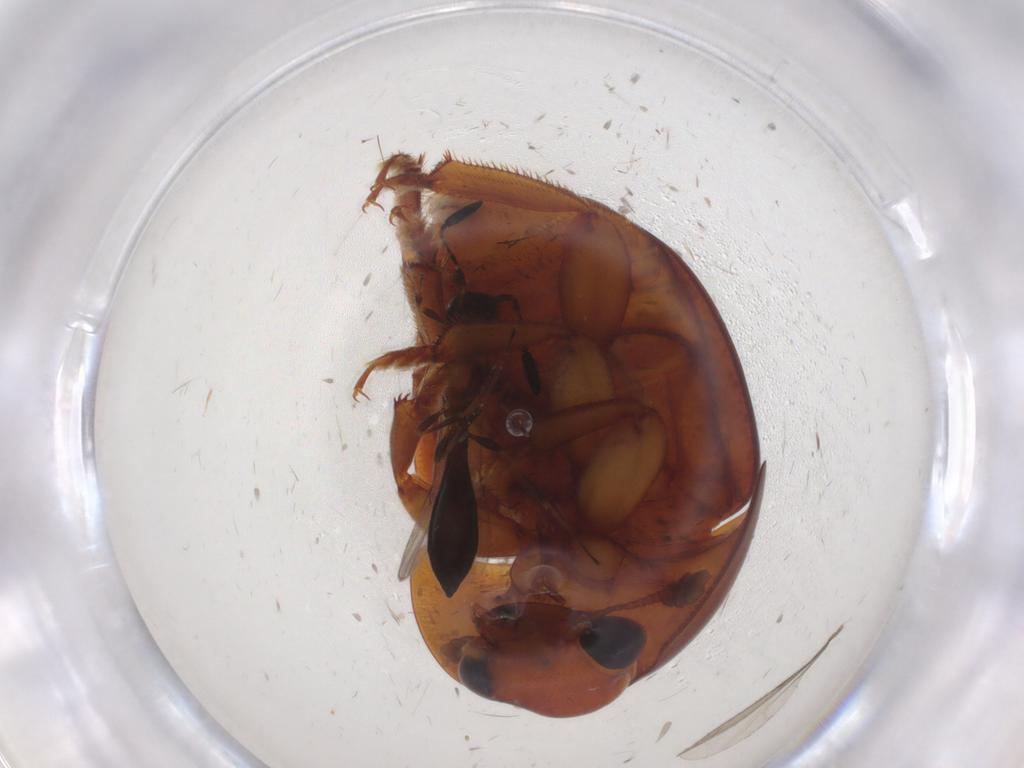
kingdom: Animalia
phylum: Arthropoda
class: Insecta
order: Coleoptera
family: Nitidulidae
